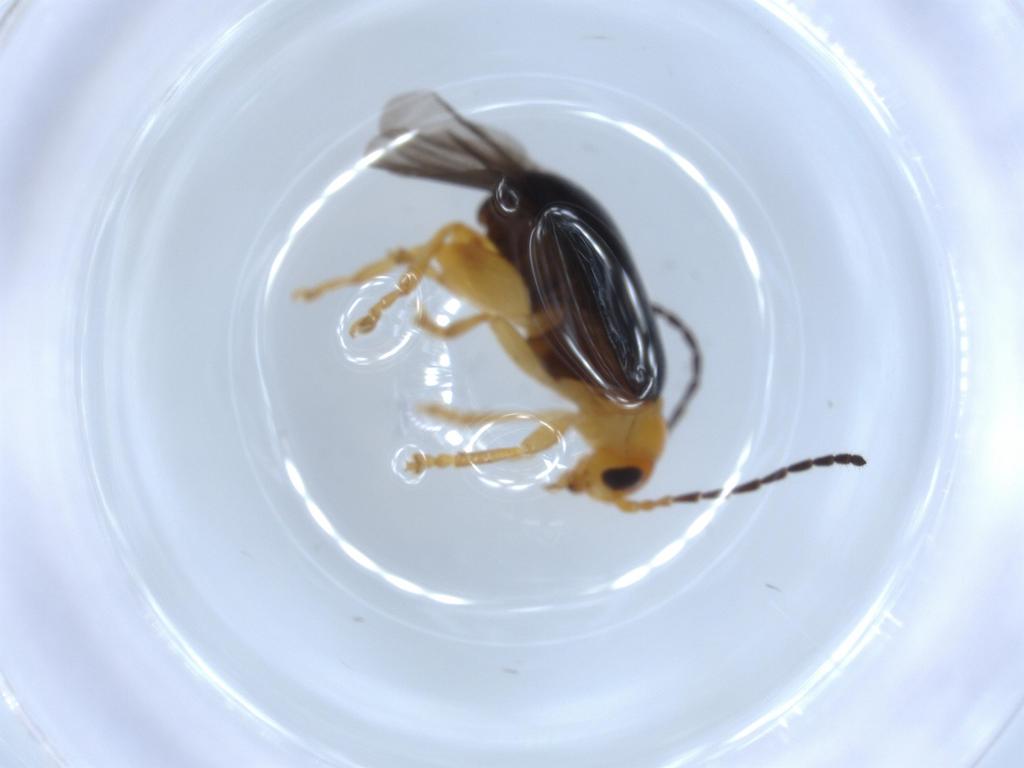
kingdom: Animalia
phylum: Arthropoda
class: Insecta
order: Coleoptera
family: Chrysomelidae
